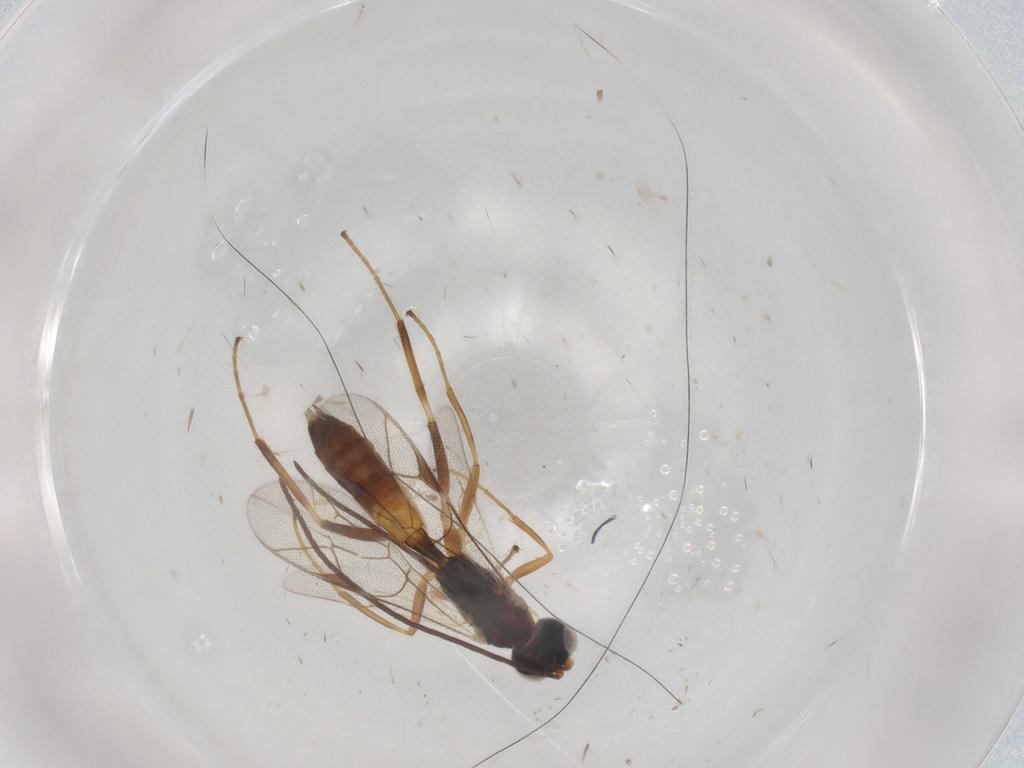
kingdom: Animalia
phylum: Arthropoda
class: Insecta
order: Hymenoptera
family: Ichneumonidae
